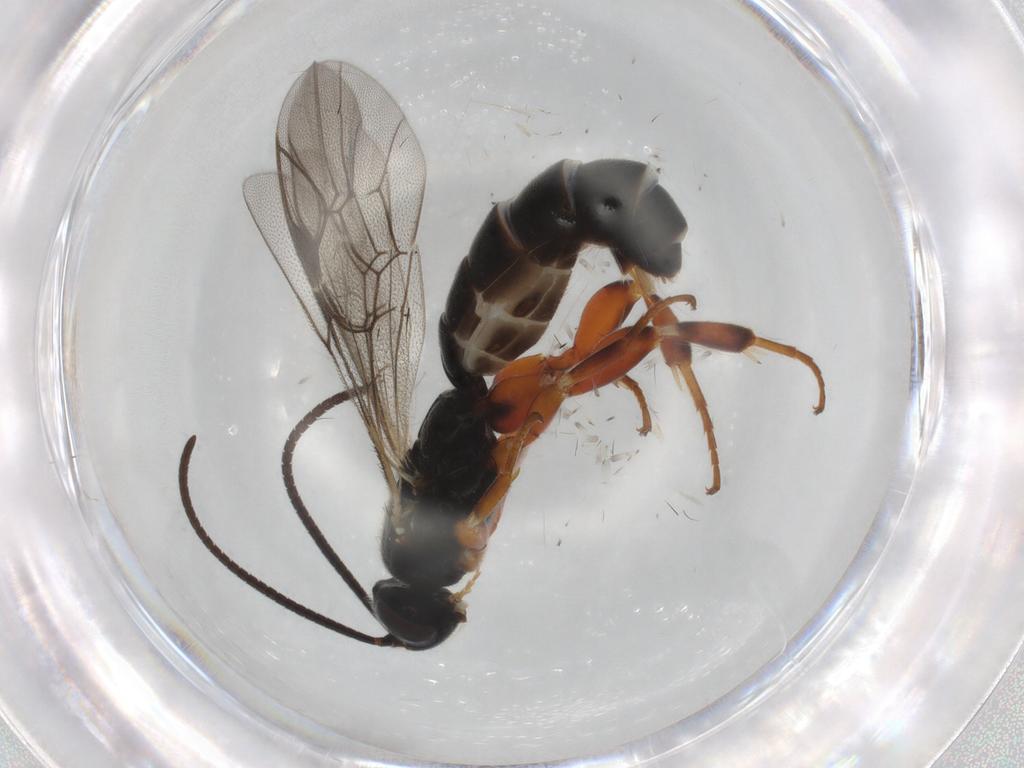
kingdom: Animalia
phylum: Arthropoda
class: Insecta
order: Hymenoptera
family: Ichneumonidae
